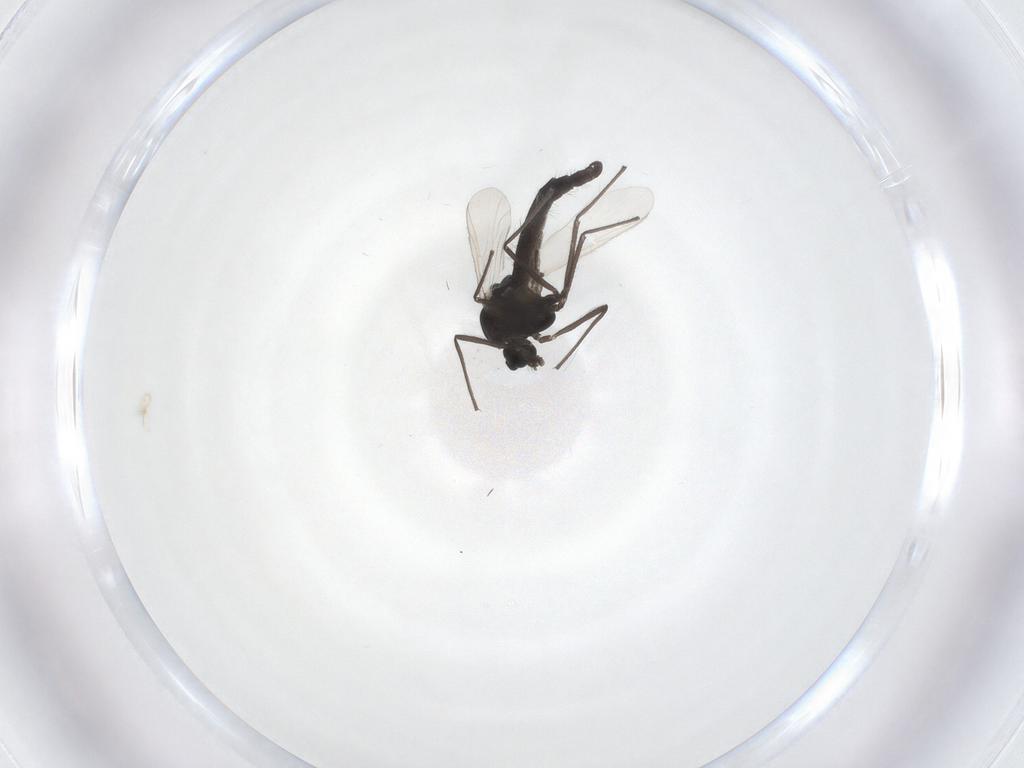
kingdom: Animalia
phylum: Arthropoda
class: Insecta
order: Diptera
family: Chironomidae
